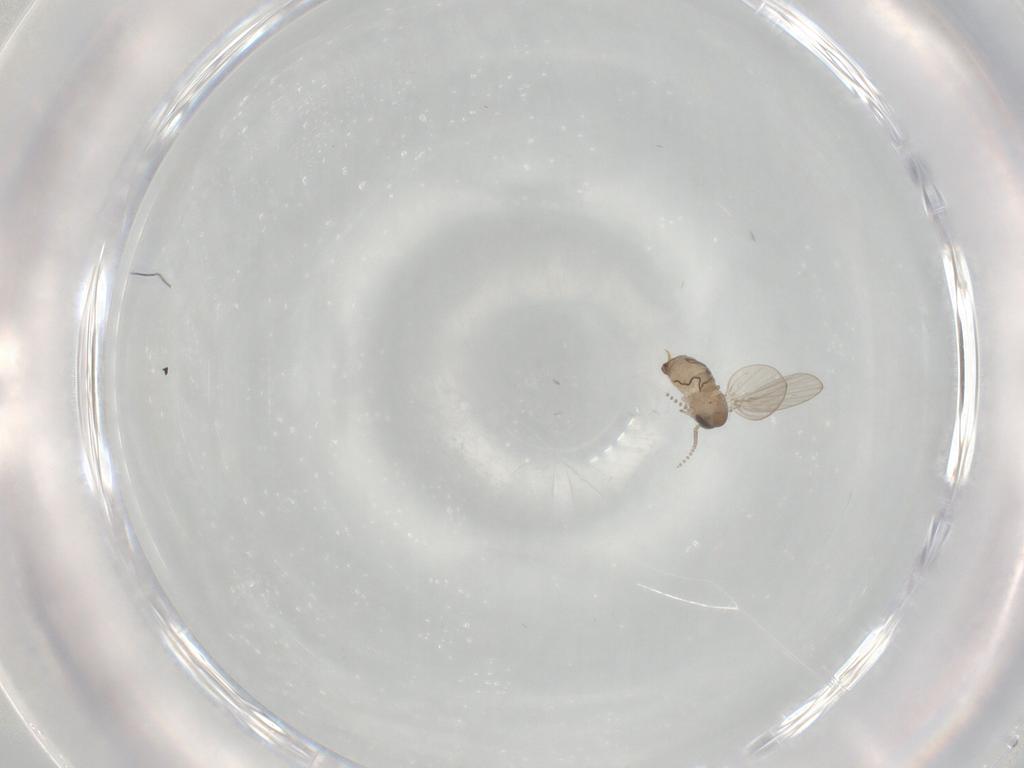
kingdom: Animalia
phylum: Arthropoda
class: Insecta
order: Diptera
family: Psychodidae
